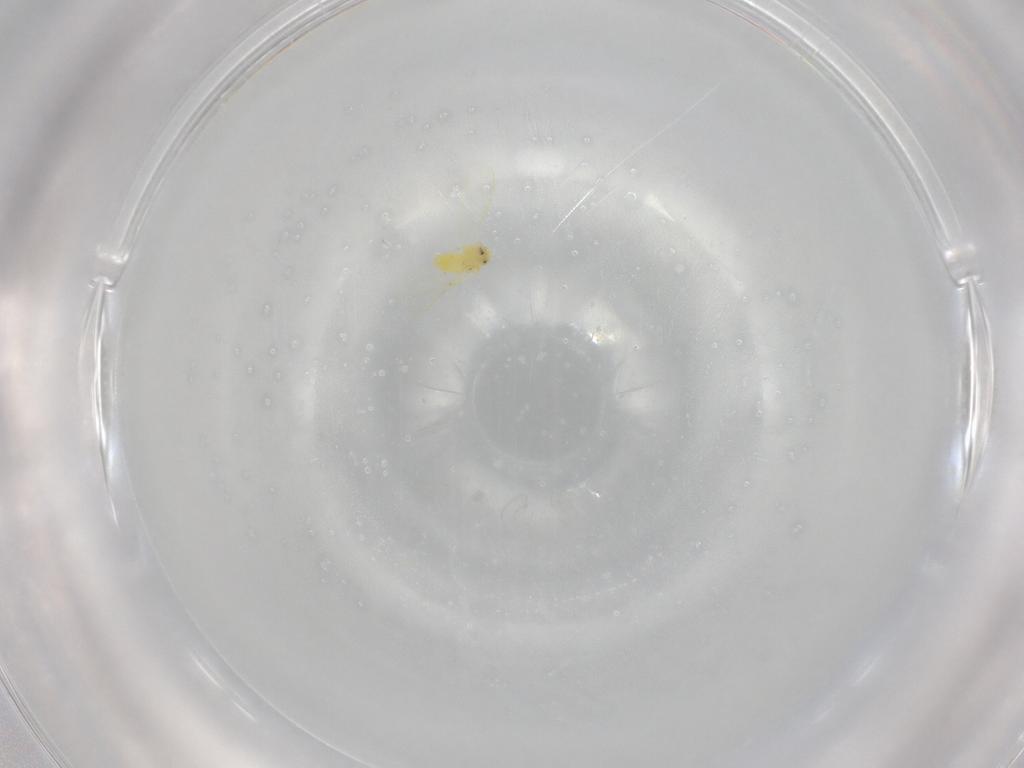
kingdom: Animalia
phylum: Arthropoda
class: Insecta
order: Hemiptera
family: Aleyrodidae
